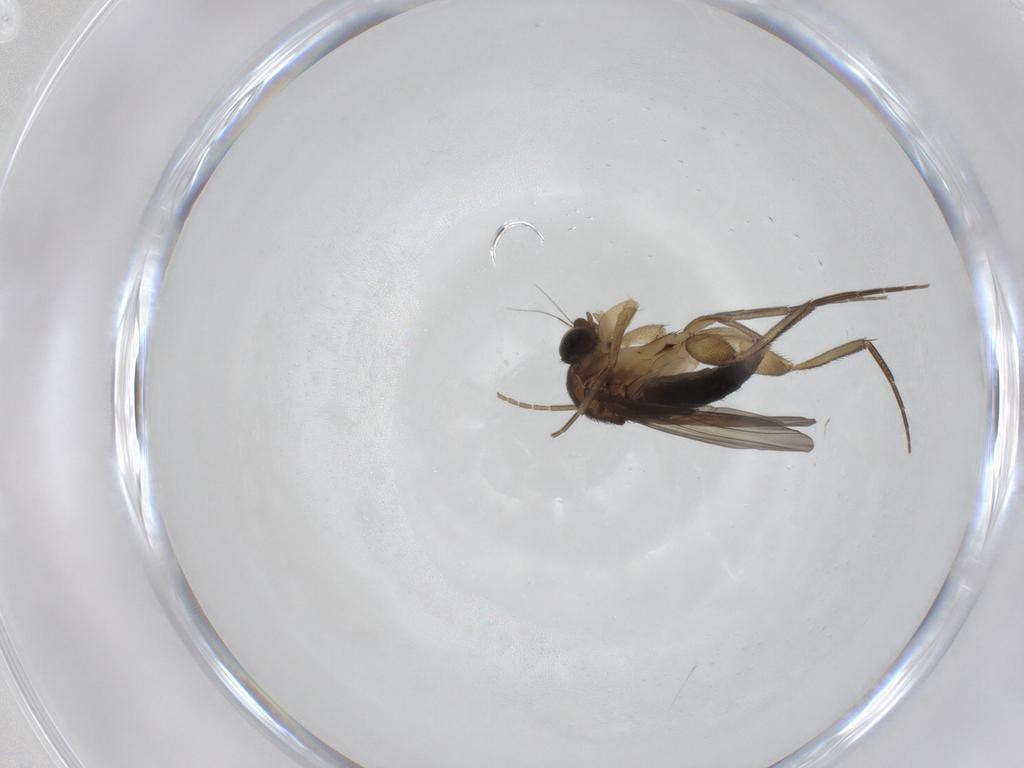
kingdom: Animalia
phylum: Arthropoda
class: Insecta
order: Diptera
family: Phoridae
